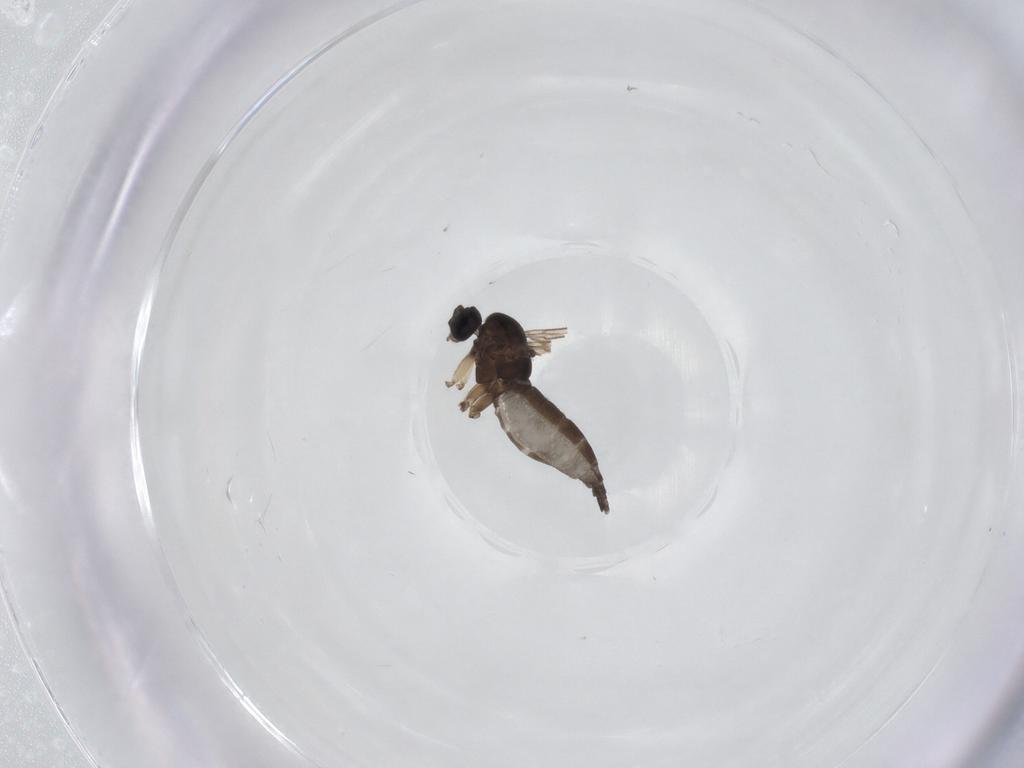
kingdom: Animalia
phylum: Arthropoda
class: Insecta
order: Diptera
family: Sciaridae
